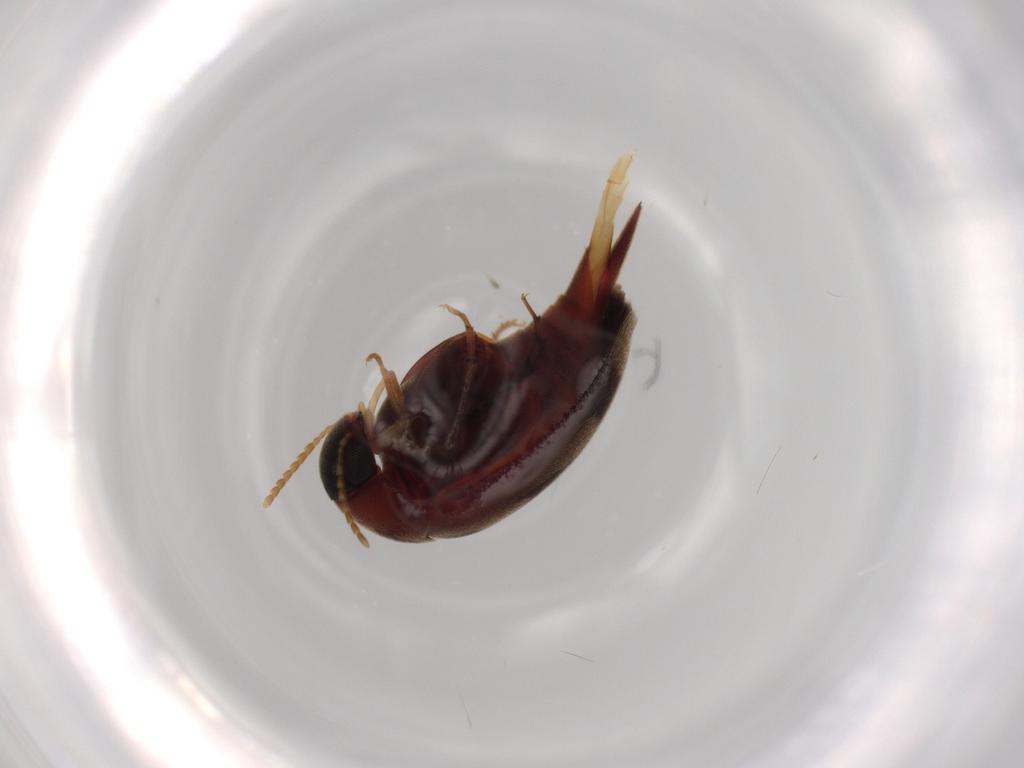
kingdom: Animalia
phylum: Arthropoda
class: Insecta
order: Coleoptera
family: Mordellidae
